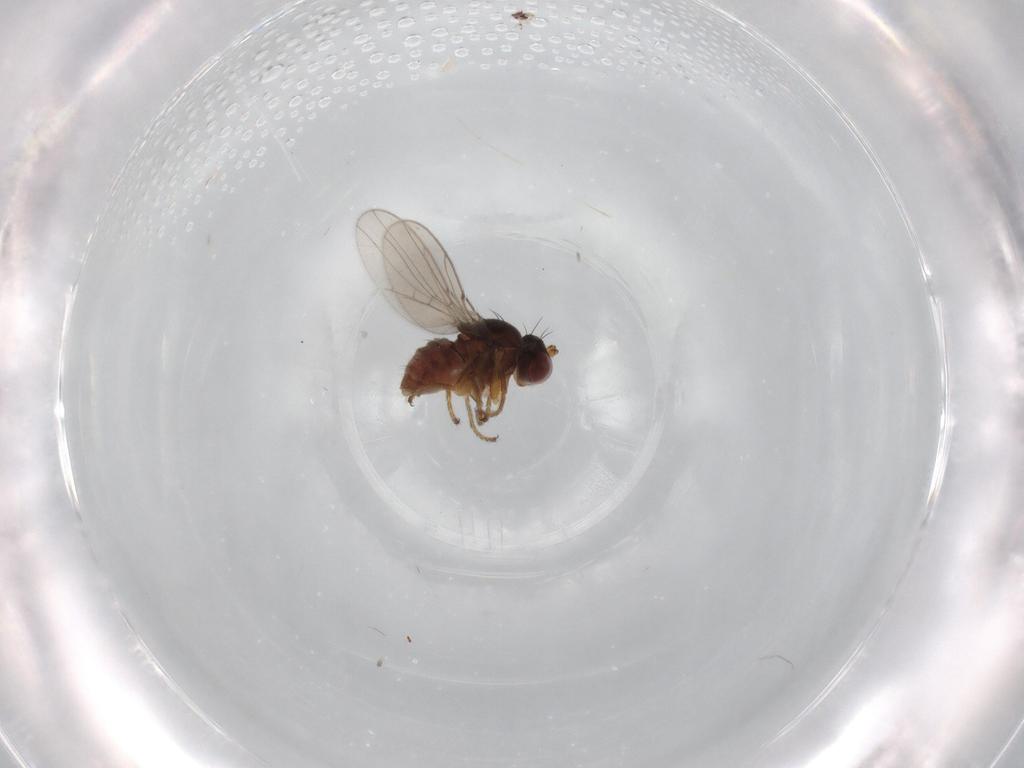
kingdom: Animalia
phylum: Arthropoda
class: Insecta
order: Diptera
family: Ephydridae
